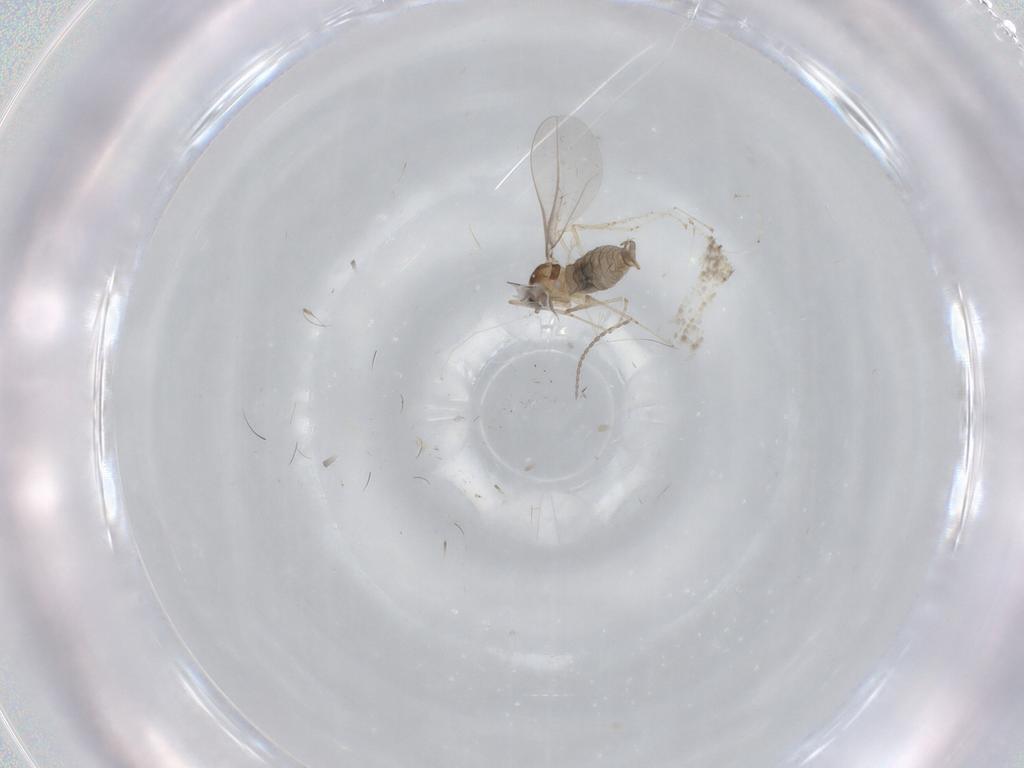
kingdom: Animalia
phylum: Arthropoda
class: Insecta
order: Diptera
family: Cecidomyiidae
